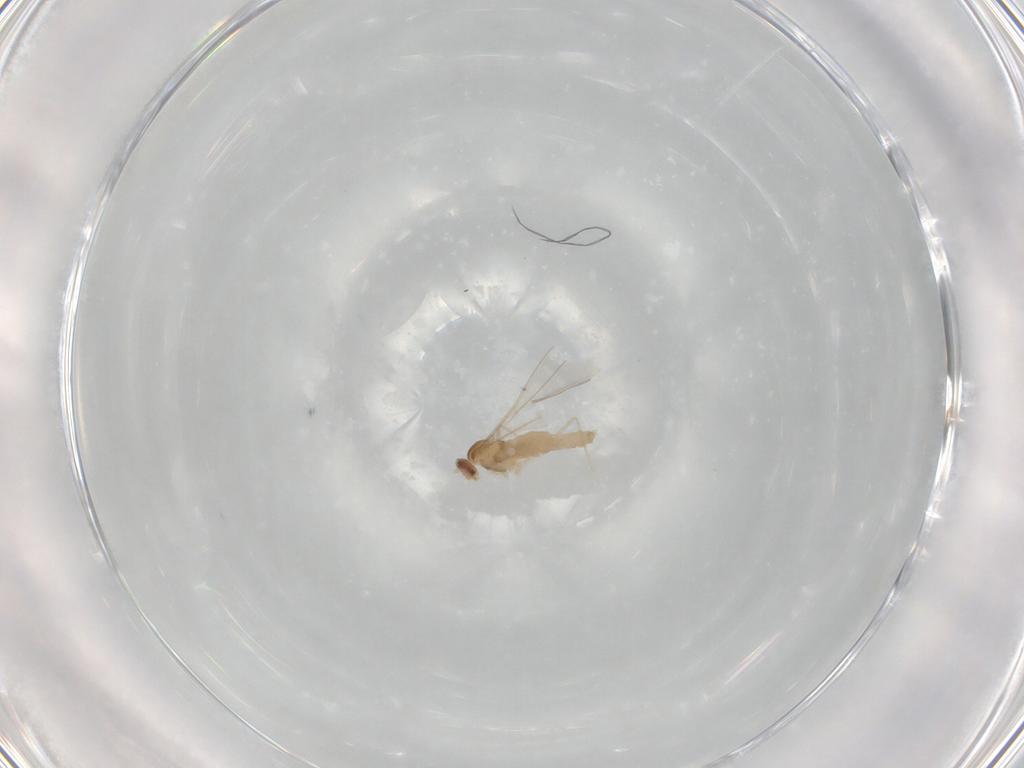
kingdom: Animalia
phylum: Arthropoda
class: Insecta
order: Diptera
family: Cecidomyiidae
